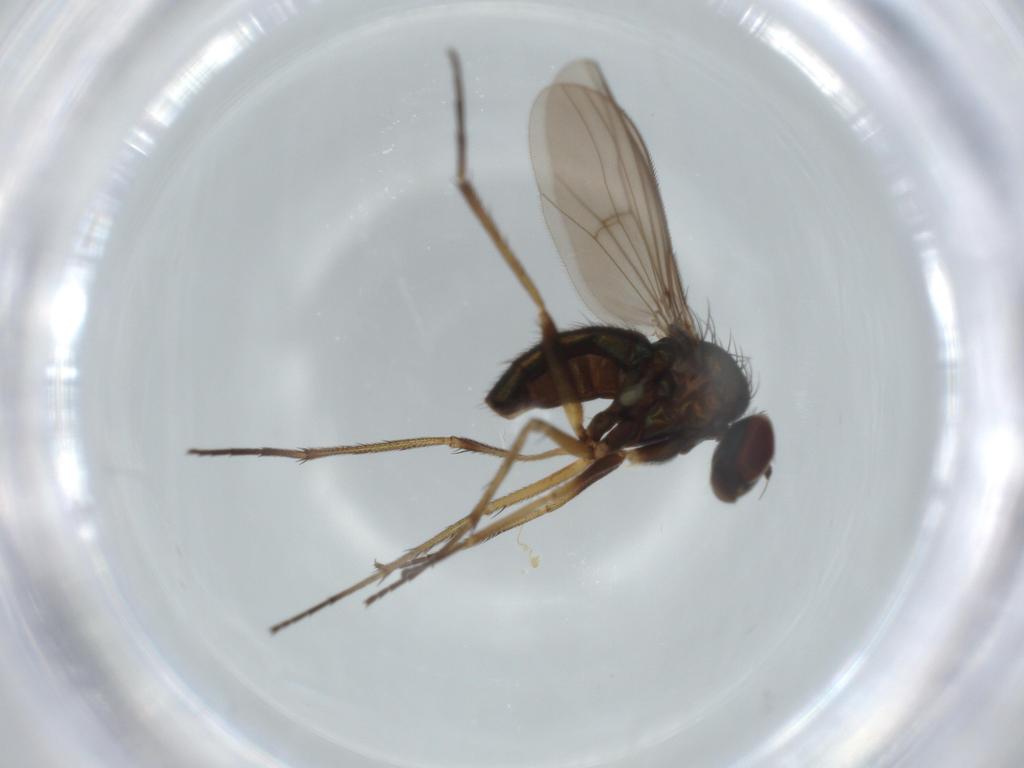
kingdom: Animalia
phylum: Arthropoda
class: Insecta
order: Diptera
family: Dolichopodidae
